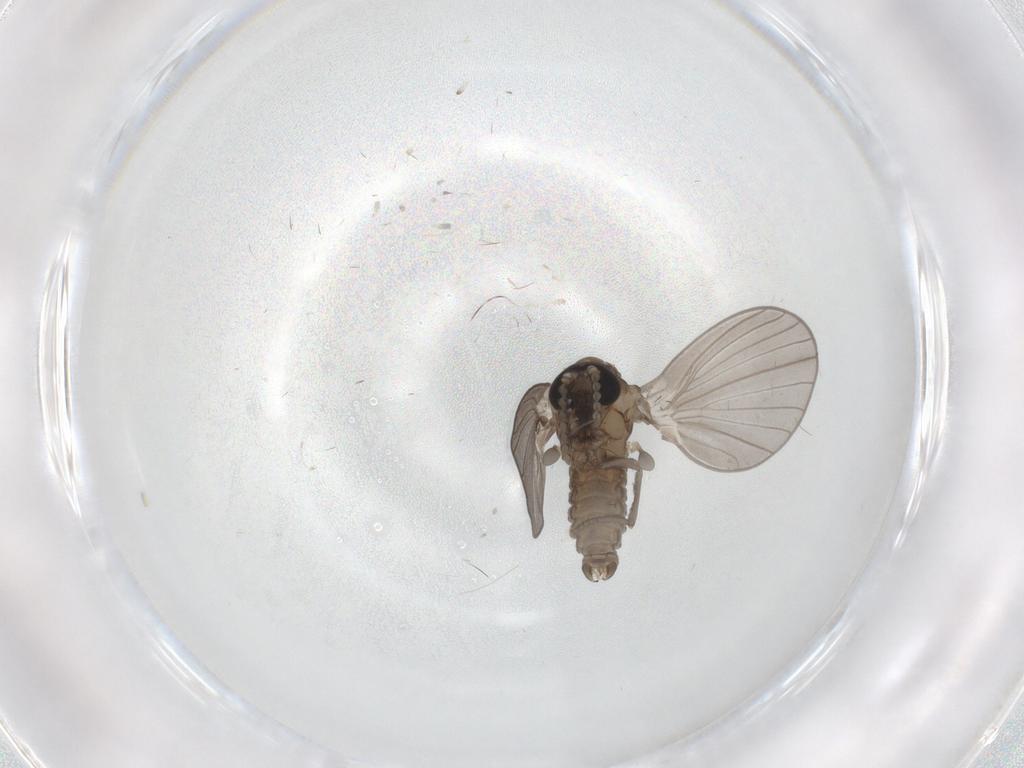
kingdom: Animalia
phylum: Arthropoda
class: Insecta
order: Diptera
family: Psychodidae
